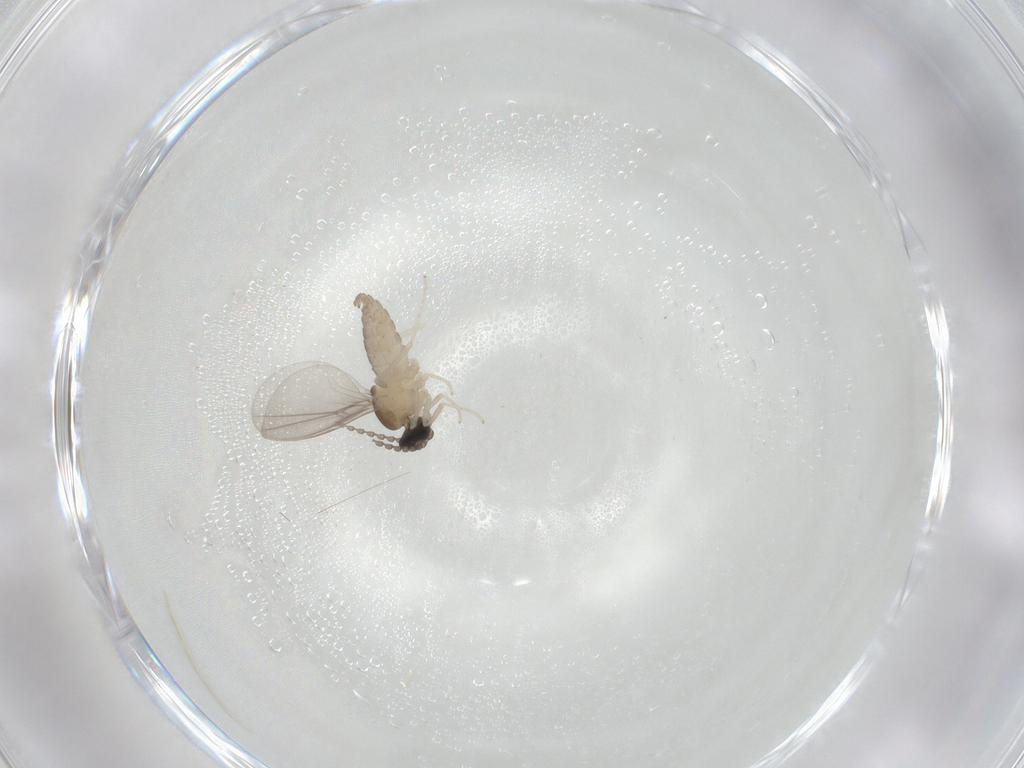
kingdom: Animalia
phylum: Arthropoda
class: Insecta
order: Diptera
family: Cecidomyiidae
